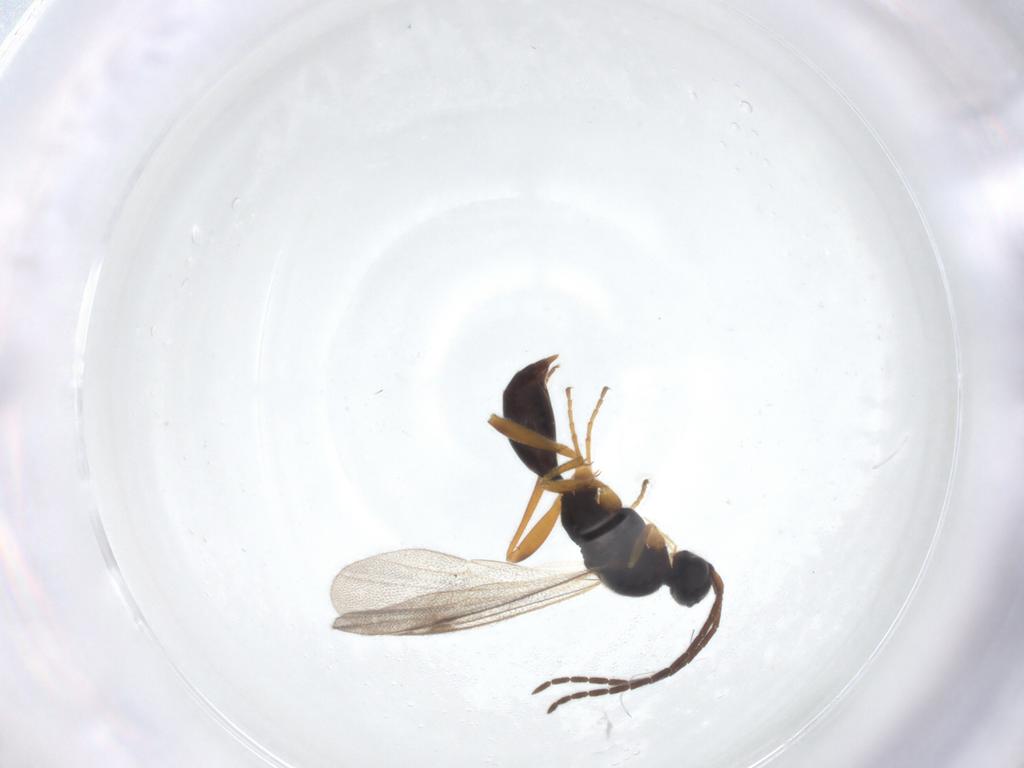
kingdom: Animalia
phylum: Arthropoda
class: Insecta
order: Hymenoptera
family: Proctotrupidae
